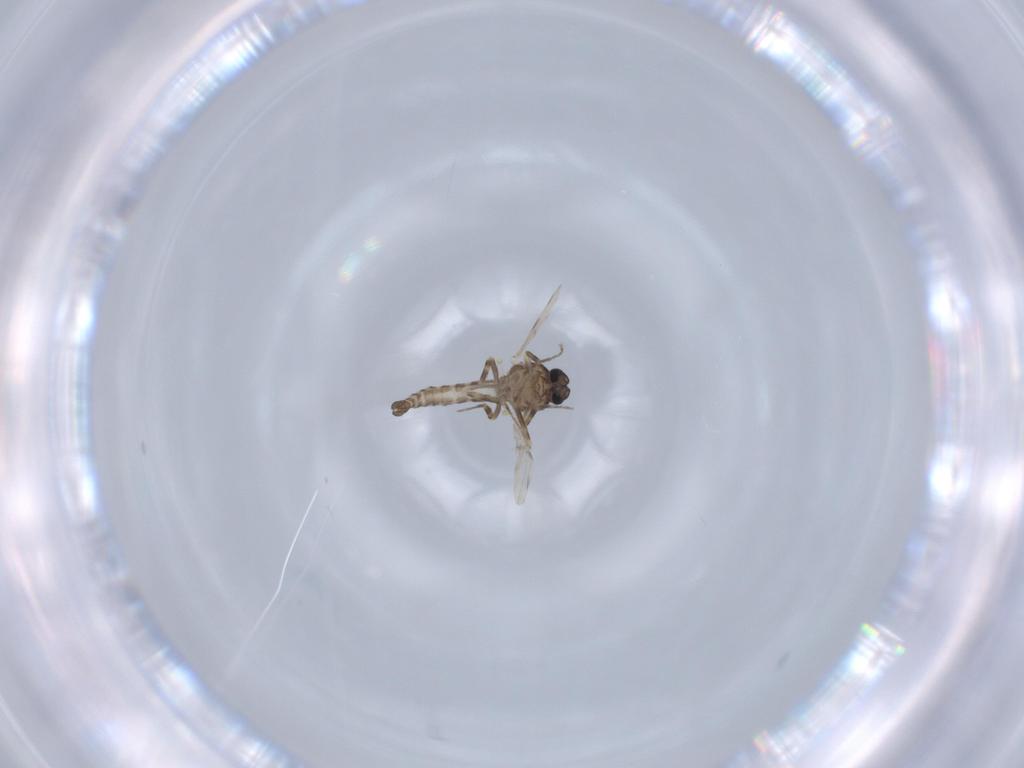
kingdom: Animalia
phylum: Arthropoda
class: Insecta
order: Diptera
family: Ceratopogonidae
